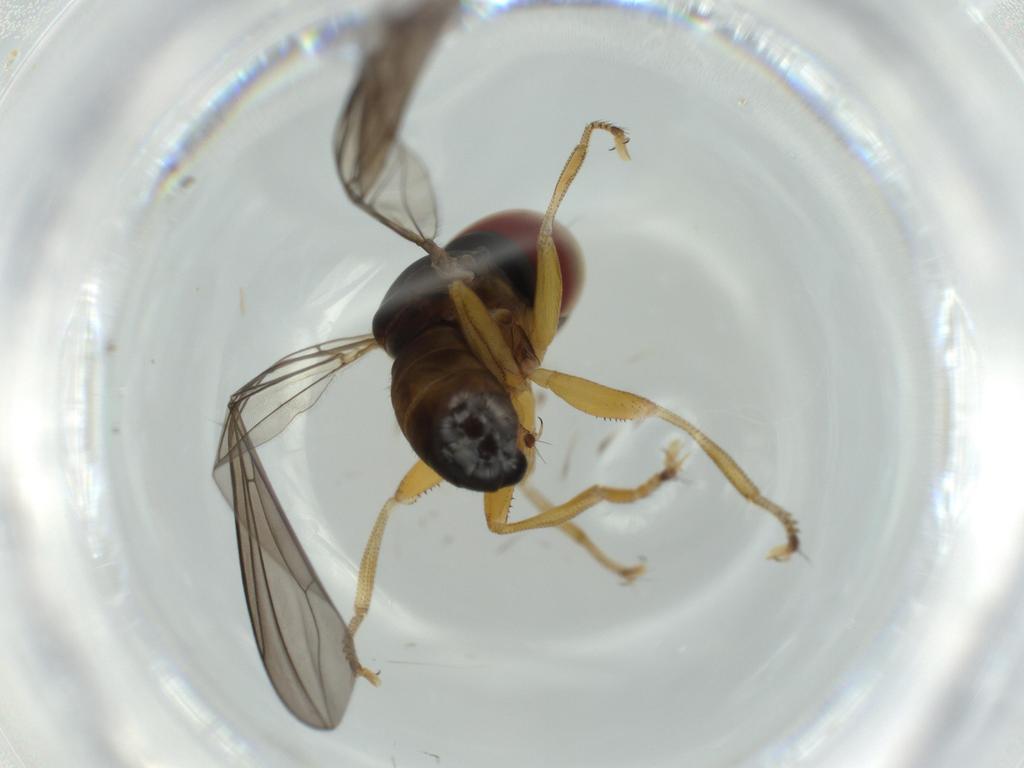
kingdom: Animalia
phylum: Arthropoda
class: Insecta
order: Diptera
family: Pipunculidae
